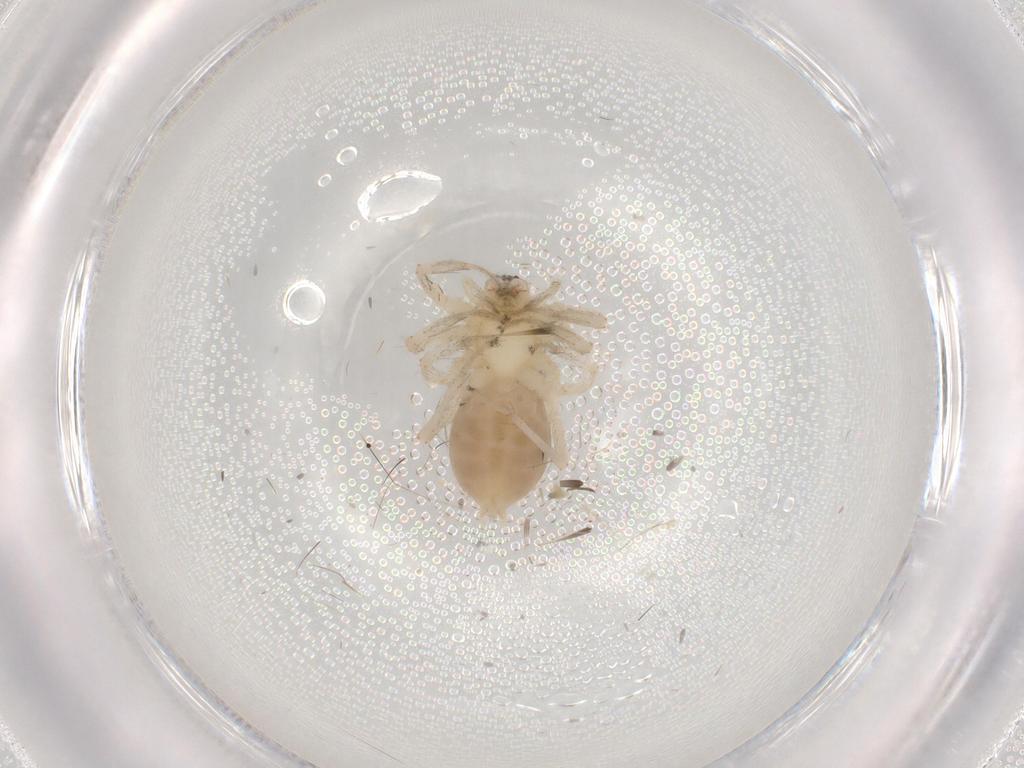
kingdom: Animalia
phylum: Arthropoda
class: Arachnida
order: Araneae
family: Anyphaenidae
